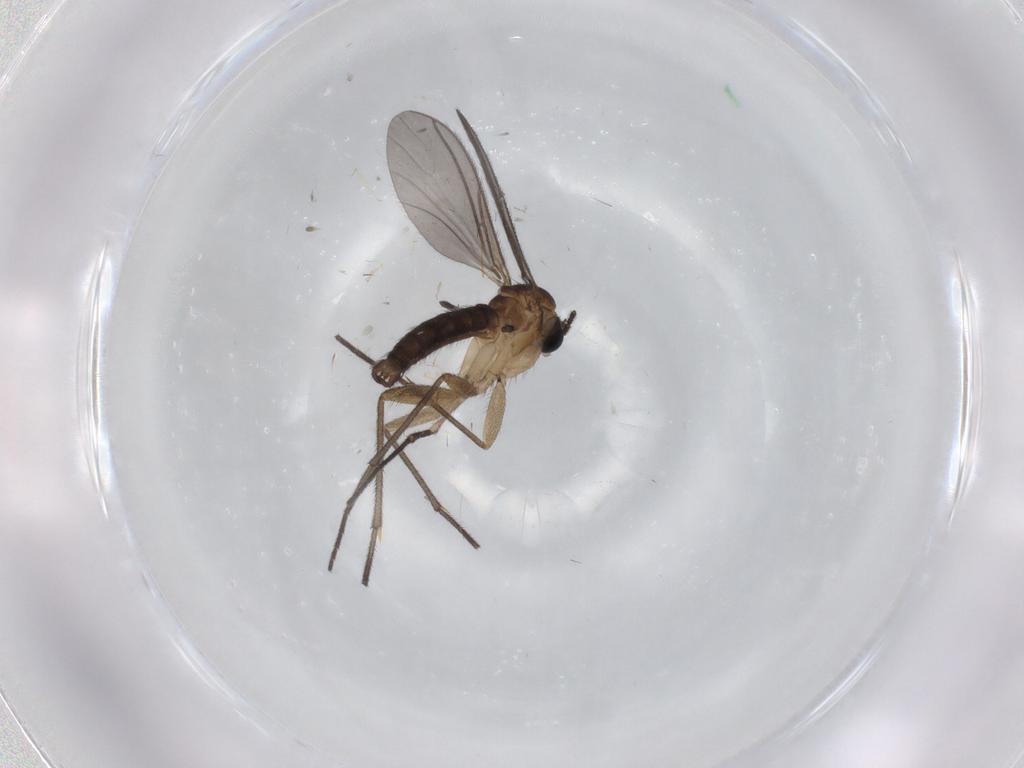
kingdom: Animalia
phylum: Arthropoda
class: Insecta
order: Diptera
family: Sciaridae
